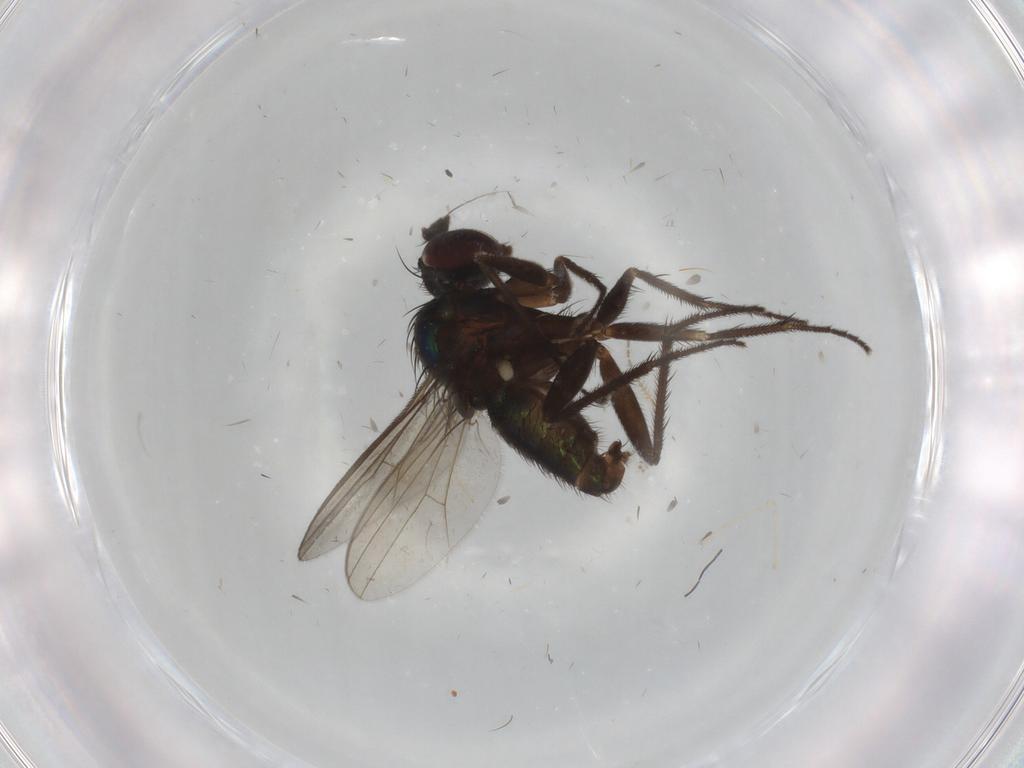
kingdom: Animalia
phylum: Arthropoda
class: Insecta
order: Diptera
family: Dolichopodidae
